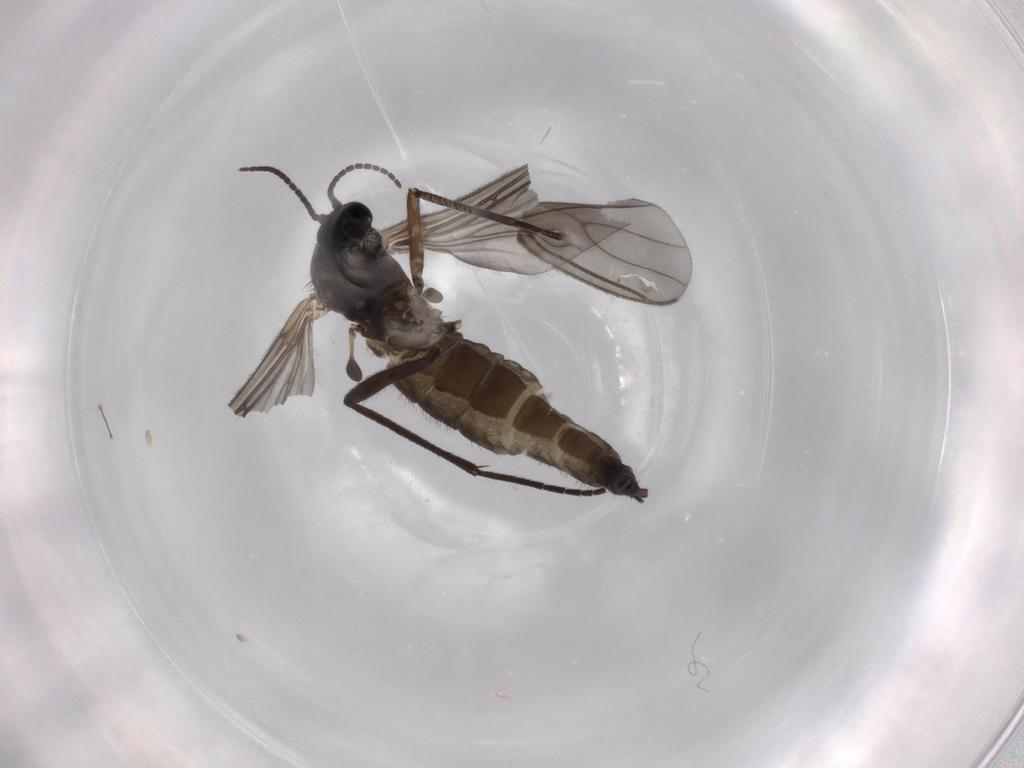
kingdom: Animalia
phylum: Arthropoda
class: Insecta
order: Diptera
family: Sciaridae
